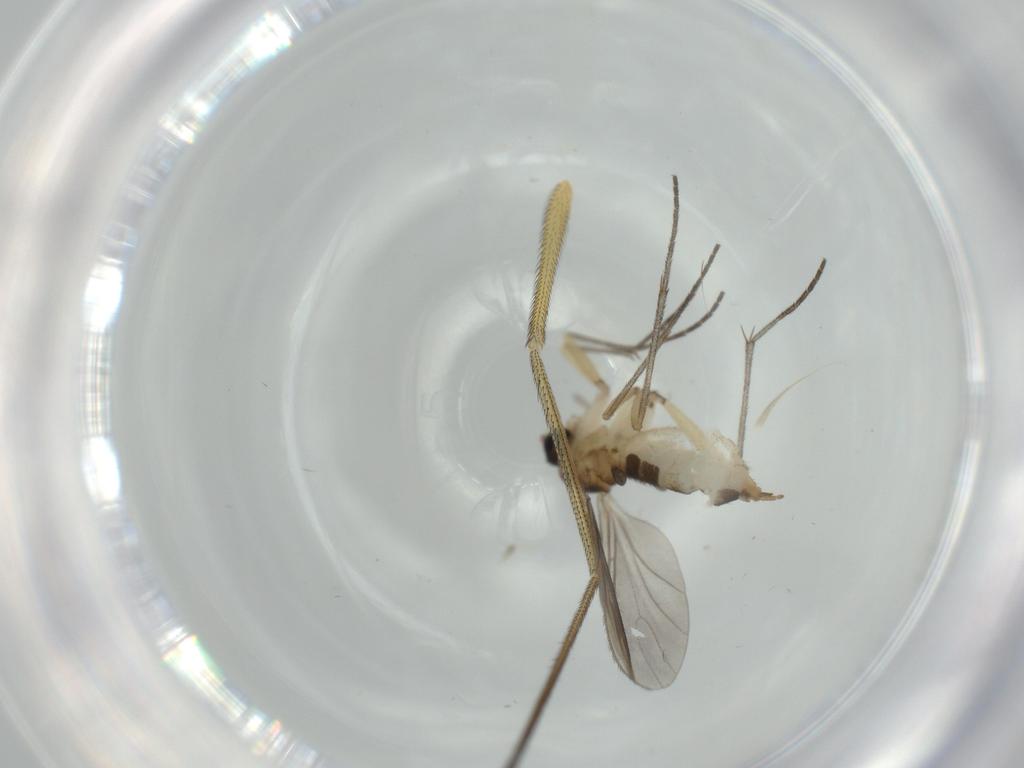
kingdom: Animalia
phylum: Arthropoda
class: Insecta
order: Diptera
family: Sciaridae
